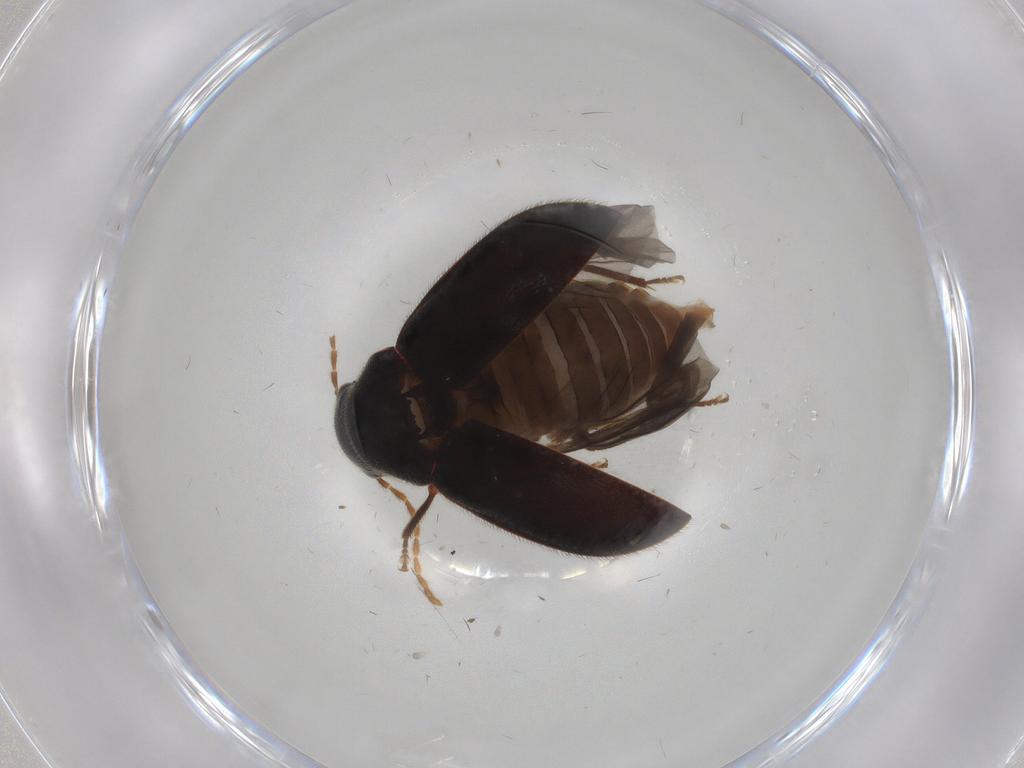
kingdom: Animalia
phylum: Arthropoda
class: Insecta
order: Coleoptera
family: Ptilodactylidae
